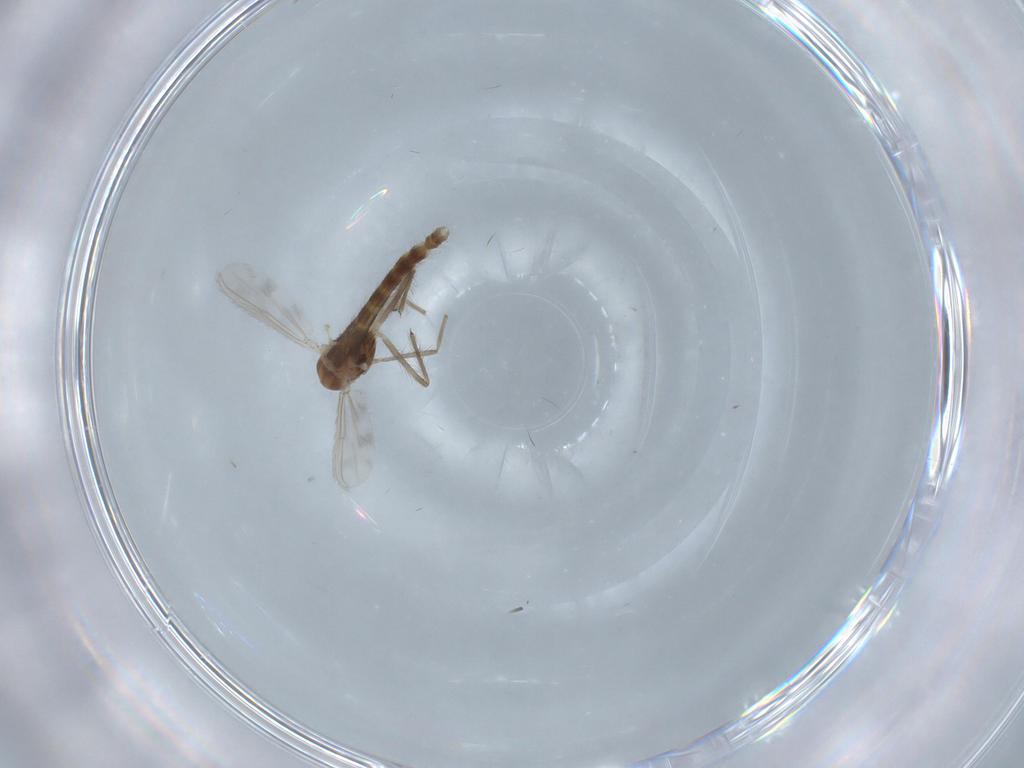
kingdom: Animalia
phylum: Arthropoda
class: Insecta
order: Diptera
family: Chironomidae
